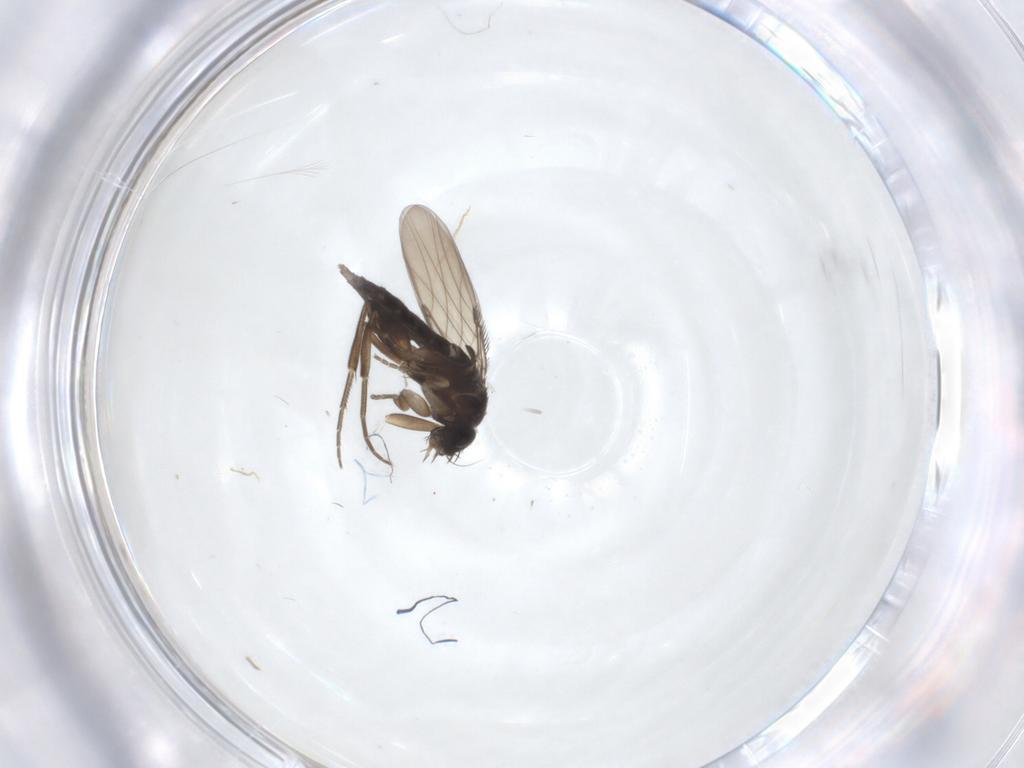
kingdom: Animalia
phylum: Arthropoda
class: Insecta
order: Diptera
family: Phoridae
